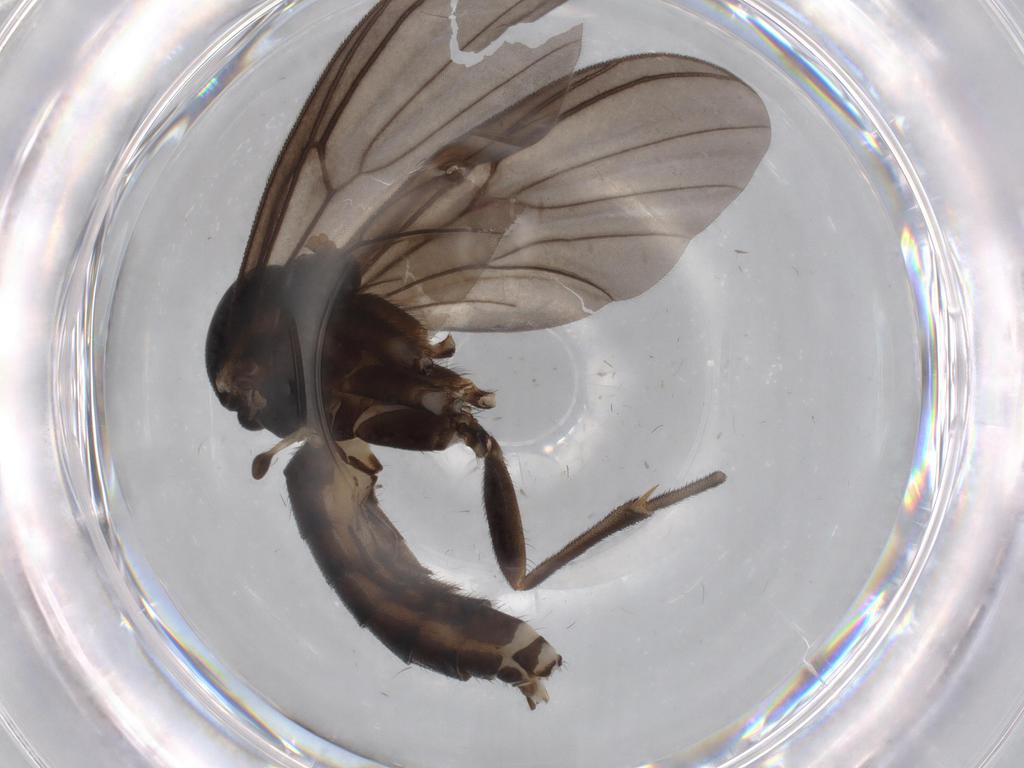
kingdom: Animalia
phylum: Arthropoda
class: Insecta
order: Diptera
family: Mycetophilidae
